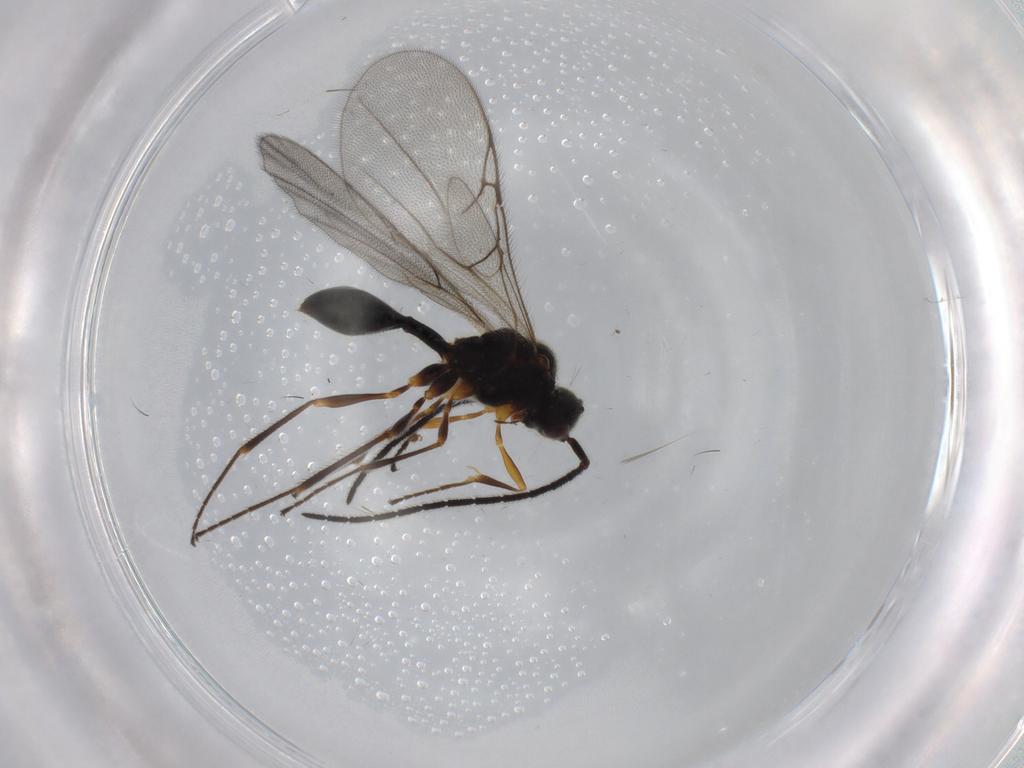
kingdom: Animalia
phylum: Arthropoda
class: Insecta
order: Hymenoptera
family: Diapriidae
